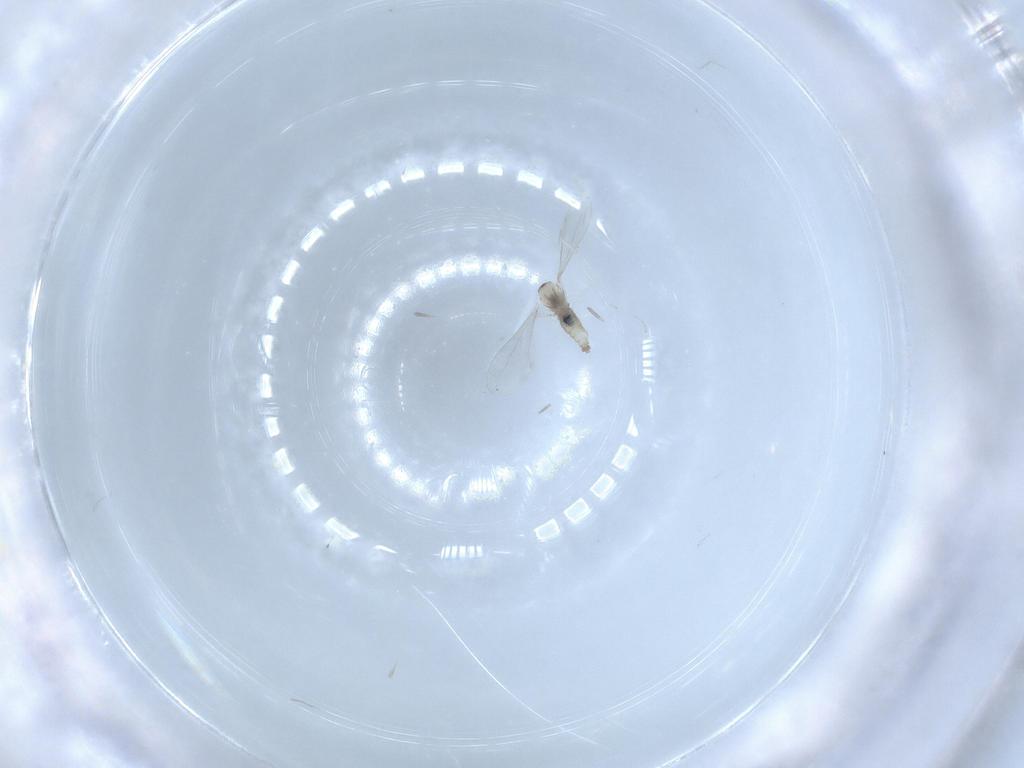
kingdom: Animalia
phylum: Arthropoda
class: Insecta
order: Diptera
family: Cecidomyiidae
